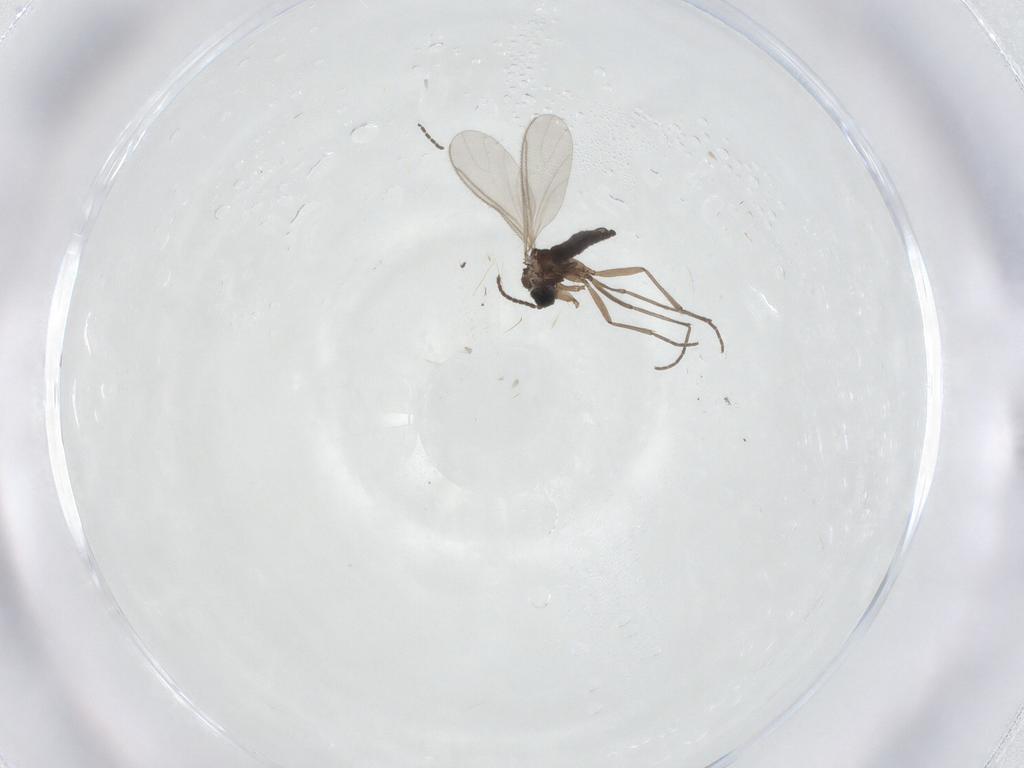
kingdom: Animalia
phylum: Arthropoda
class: Insecta
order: Diptera
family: Sciaridae
